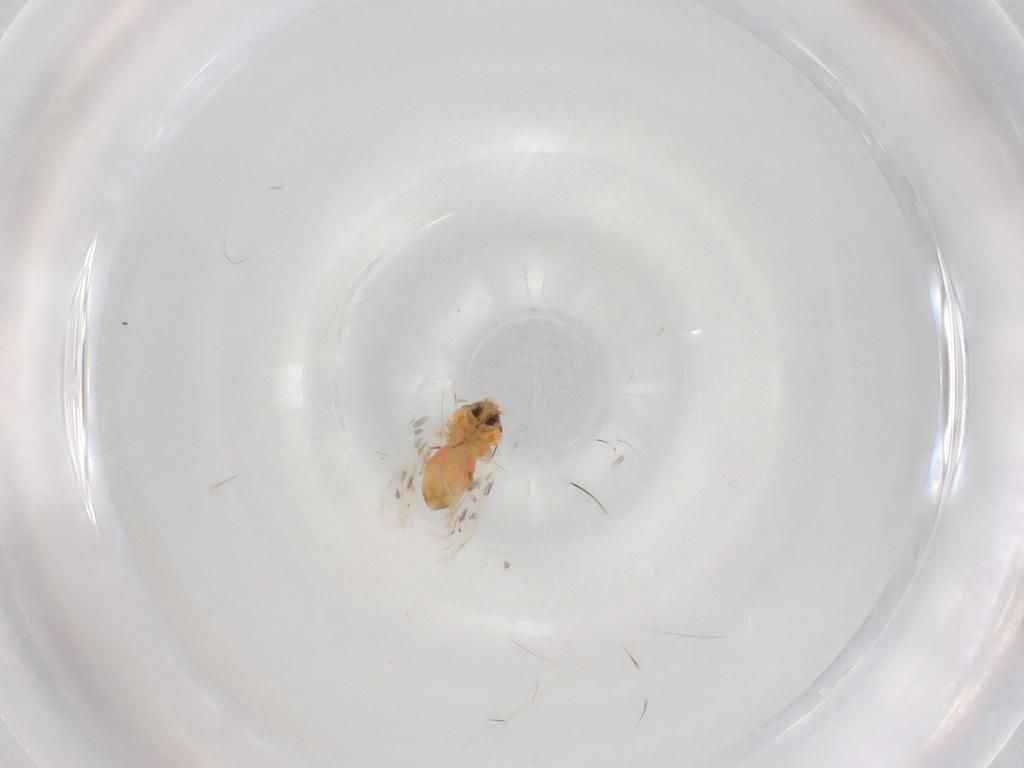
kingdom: Animalia
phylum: Arthropoda
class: Insecta
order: Hemiptera
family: Aleyrodidae
